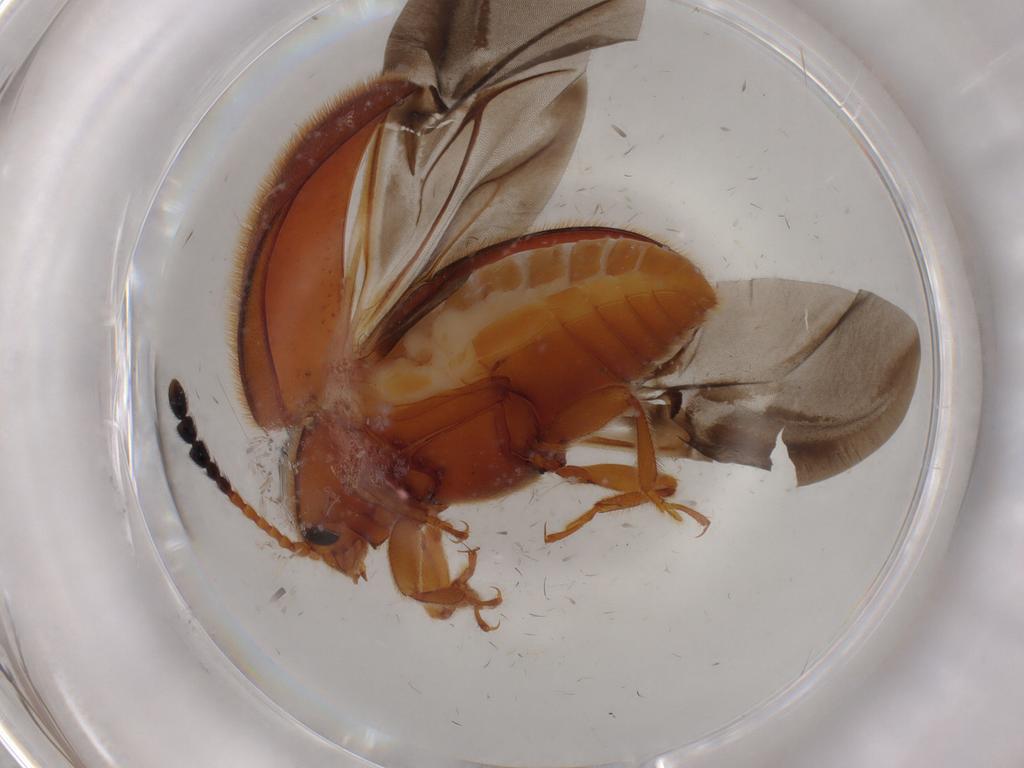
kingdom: Animalia
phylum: Arthropoda
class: Insecta
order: Coleoptera
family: Endomychidae
